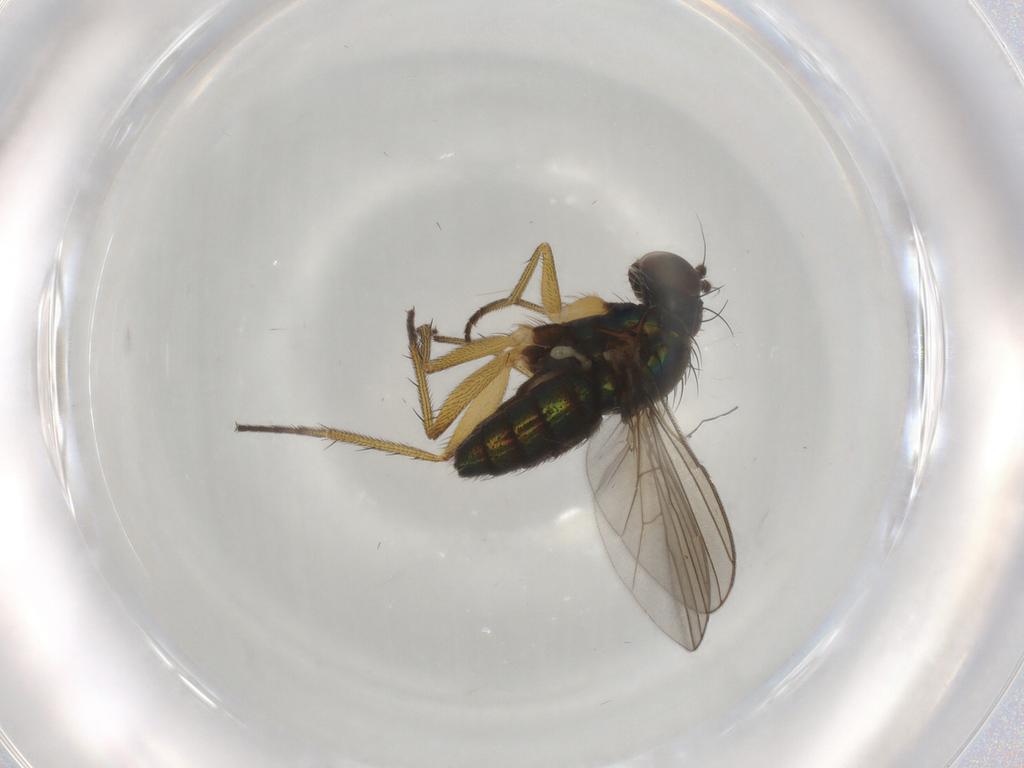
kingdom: Animalia
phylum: Arthropoda
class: Insecta
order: Diptera
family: Dolichopodidae
